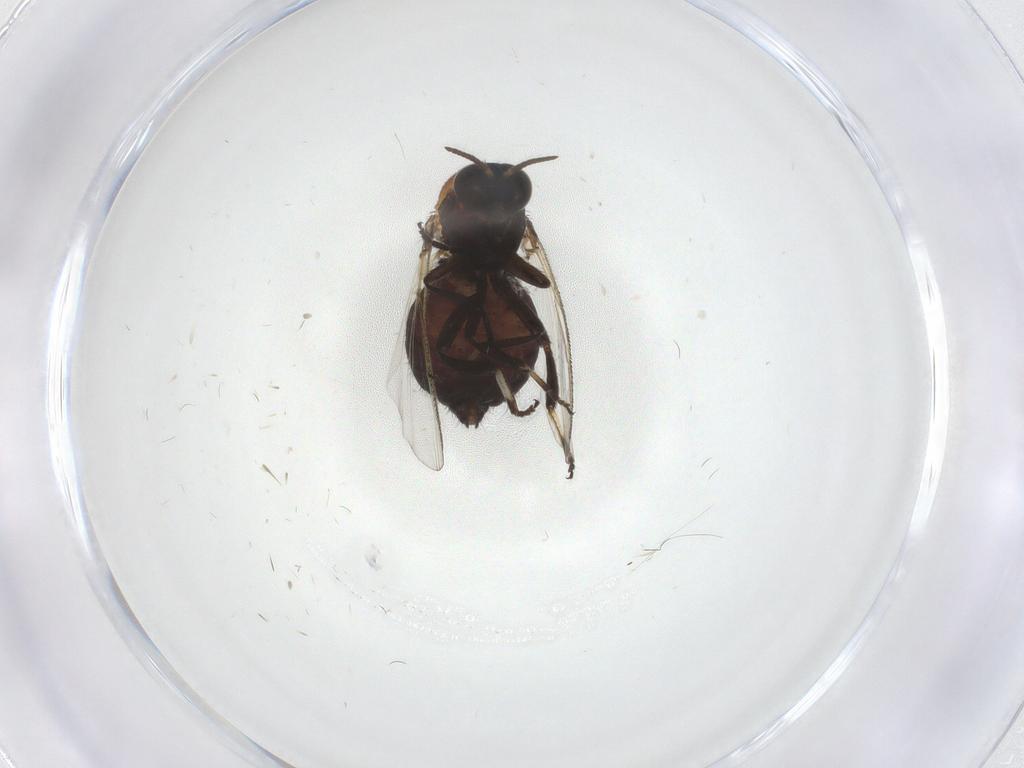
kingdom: Animalia
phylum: Arthropoda
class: Insecta
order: Diptera
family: Simuliidae
